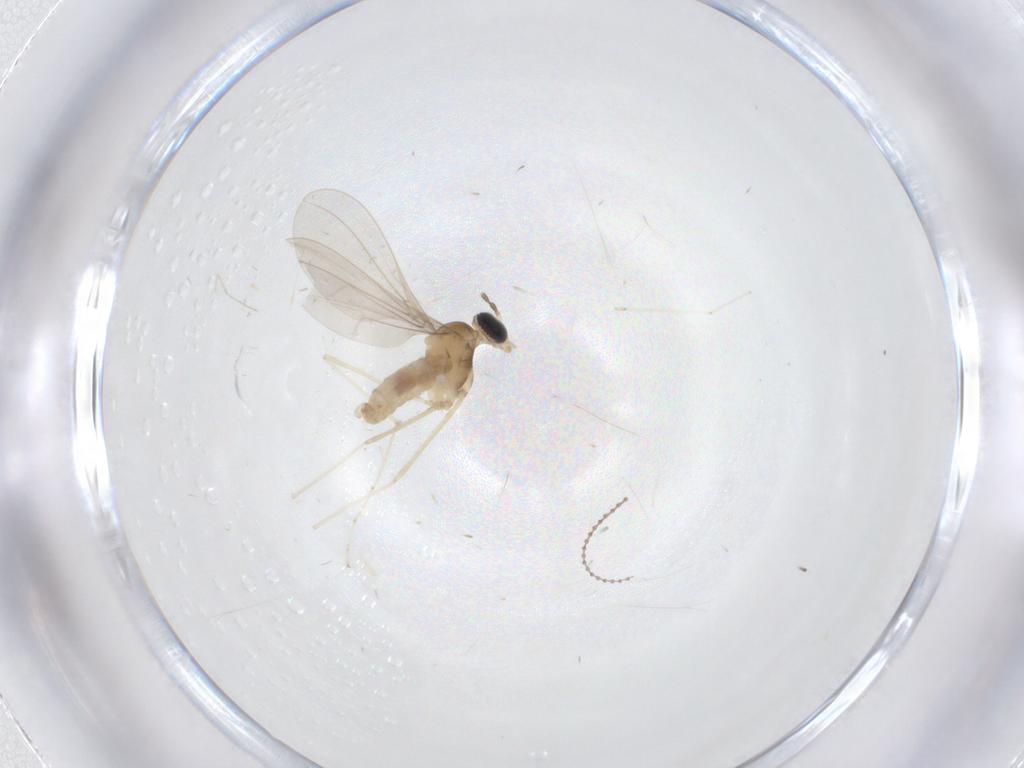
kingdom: Animalia
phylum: Arthropoda
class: Insecta
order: Diptera
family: Cecidomyiidae
